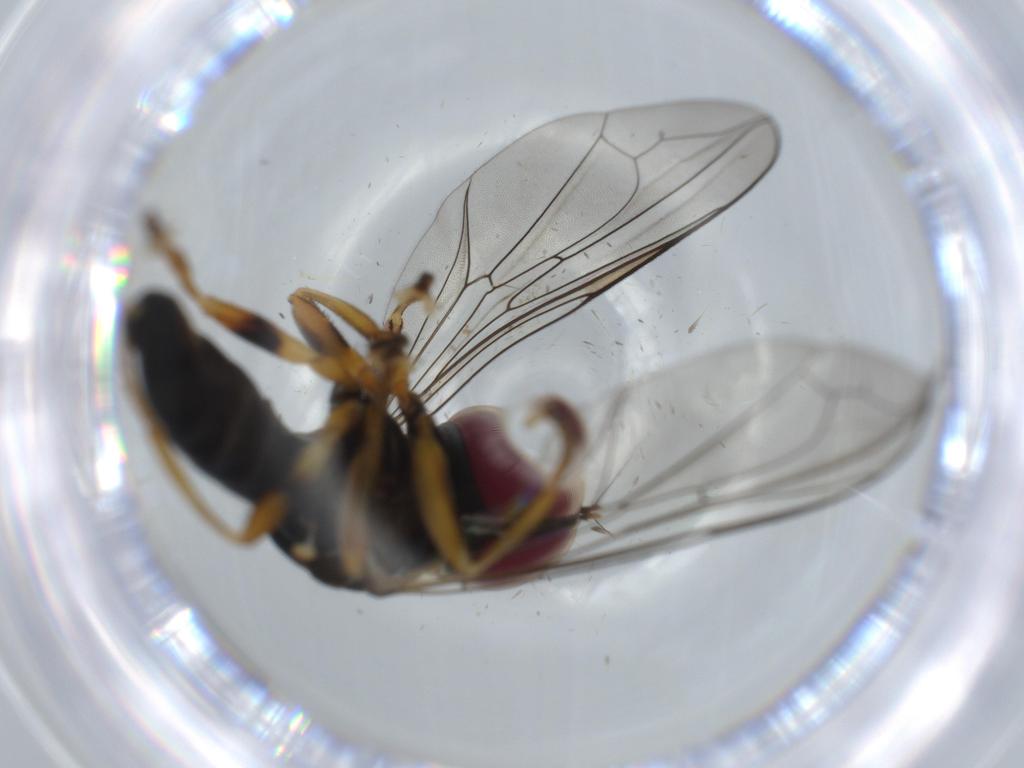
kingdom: Animalia
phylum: Arthropoda
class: Insecta
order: Diptera
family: Pipunculidae
